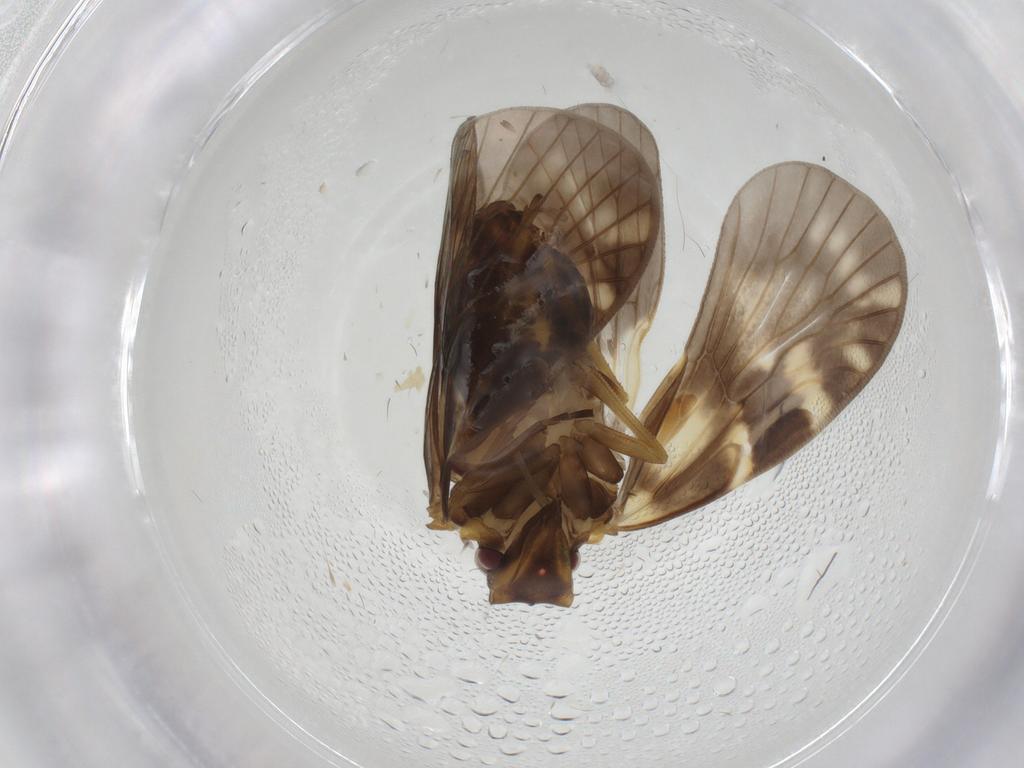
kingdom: Animalia
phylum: Arthropoda
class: Insecta
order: Hemiptera
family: Cixiidae
